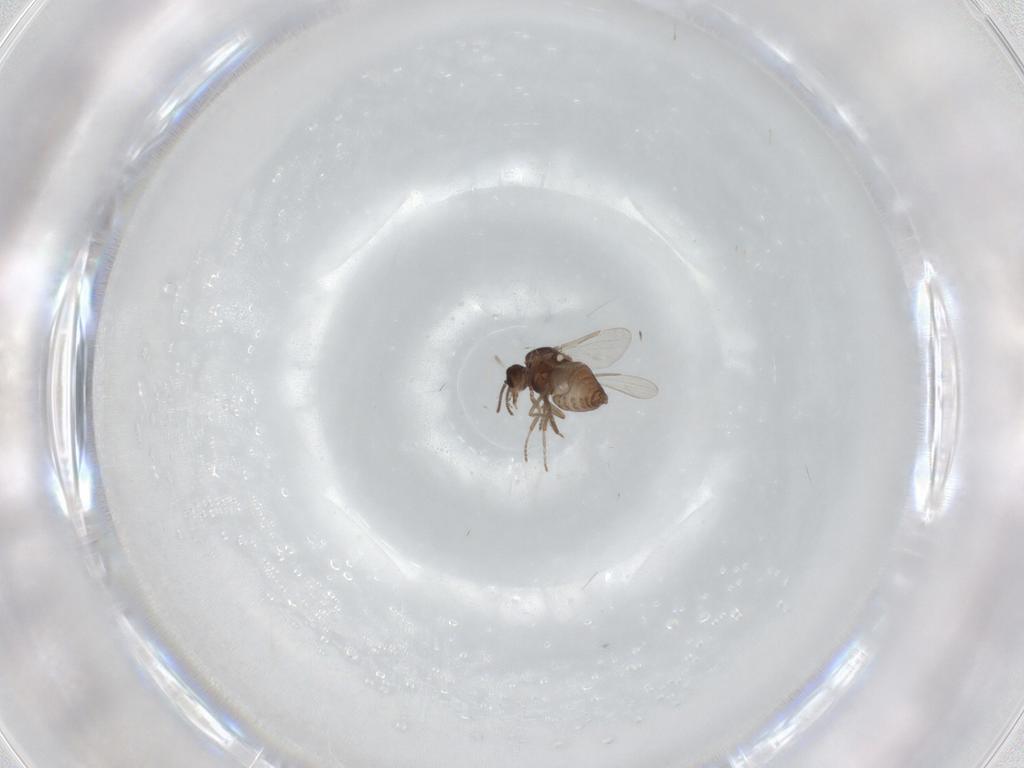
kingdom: Animalia
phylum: Arthropoda
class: Insecta
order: Diptera
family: Ceratopogonidae
